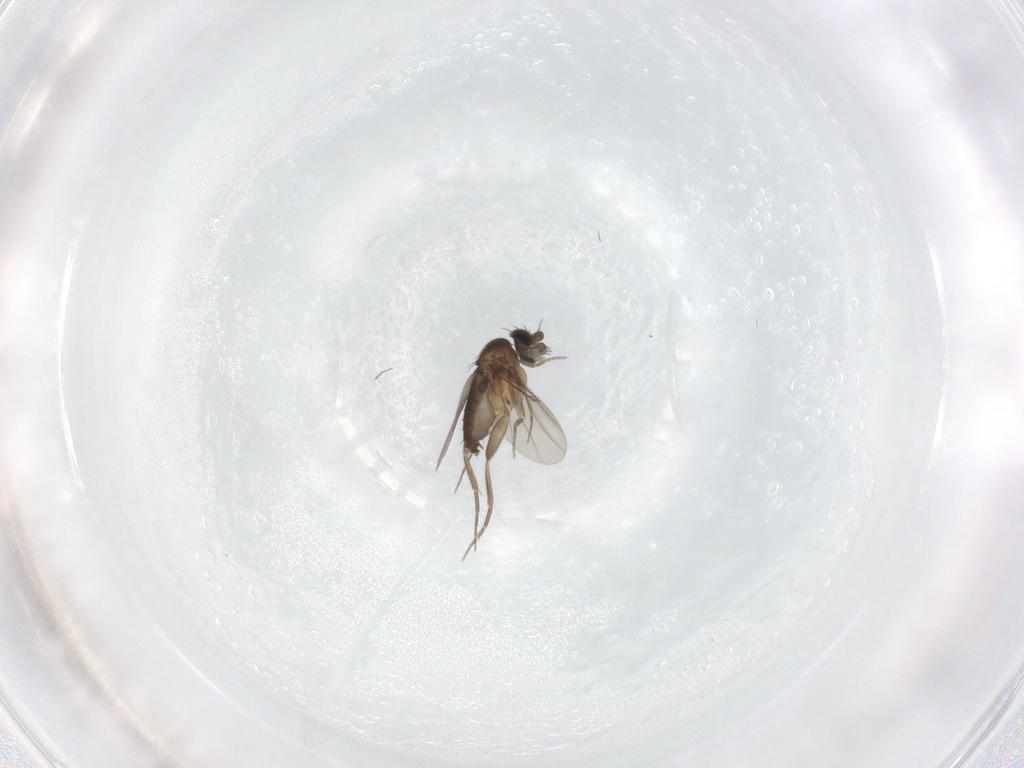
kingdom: Animalia
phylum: Arthropoda
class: Insecta
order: Diptera
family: Phoridae
